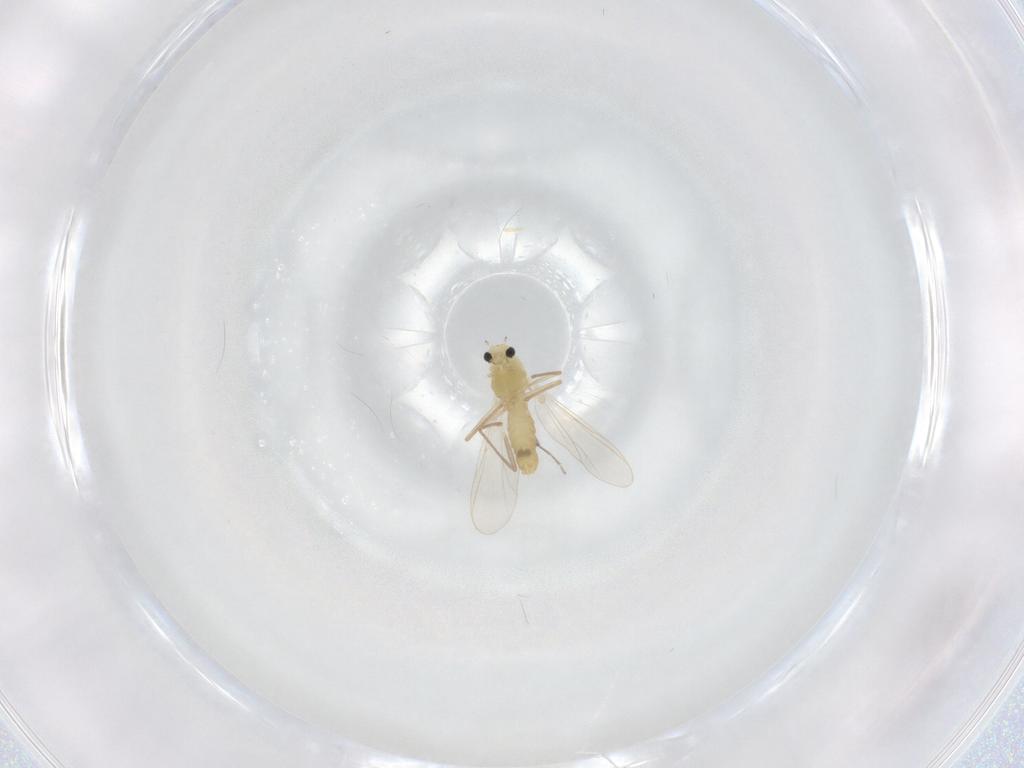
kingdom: Animalia
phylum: Arthropoda
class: Insecta
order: Diptera
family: Chironomidae
